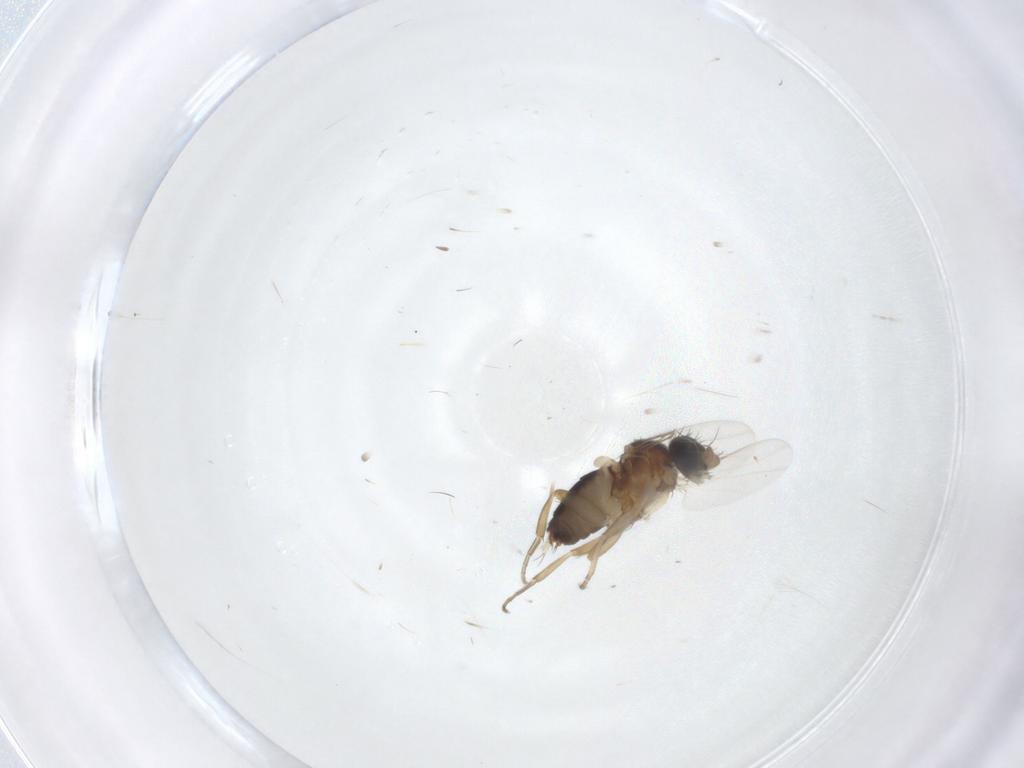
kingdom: Animalia
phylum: Arthropoda
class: Insecta
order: Diptera
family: Phoridae
